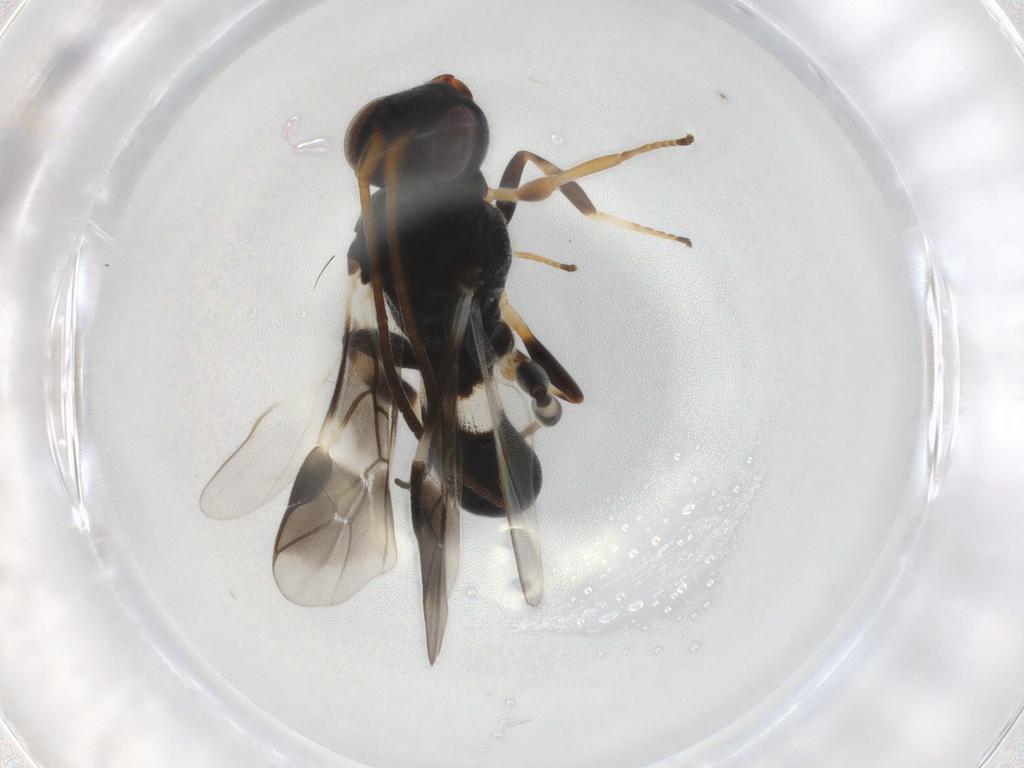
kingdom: Animalia
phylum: Arthropoda
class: Insecta
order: Hymenoptera
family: Braconidae
